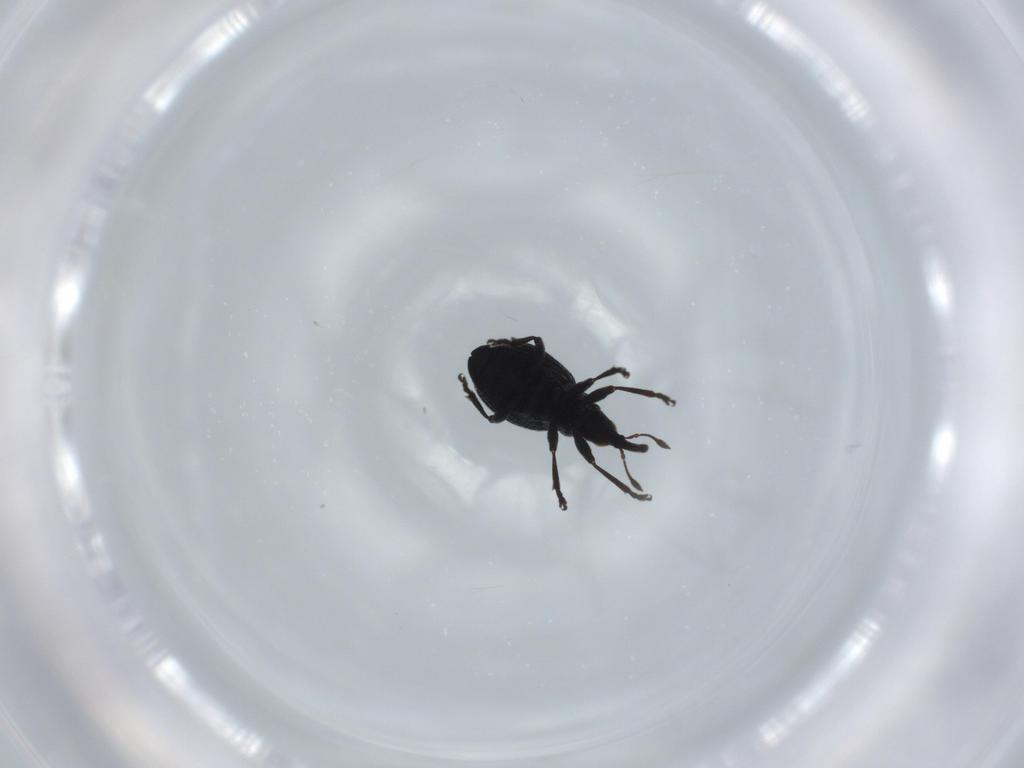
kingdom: Animalia
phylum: Arthropoda
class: Insecta
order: Coleoptera
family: Brentidae
